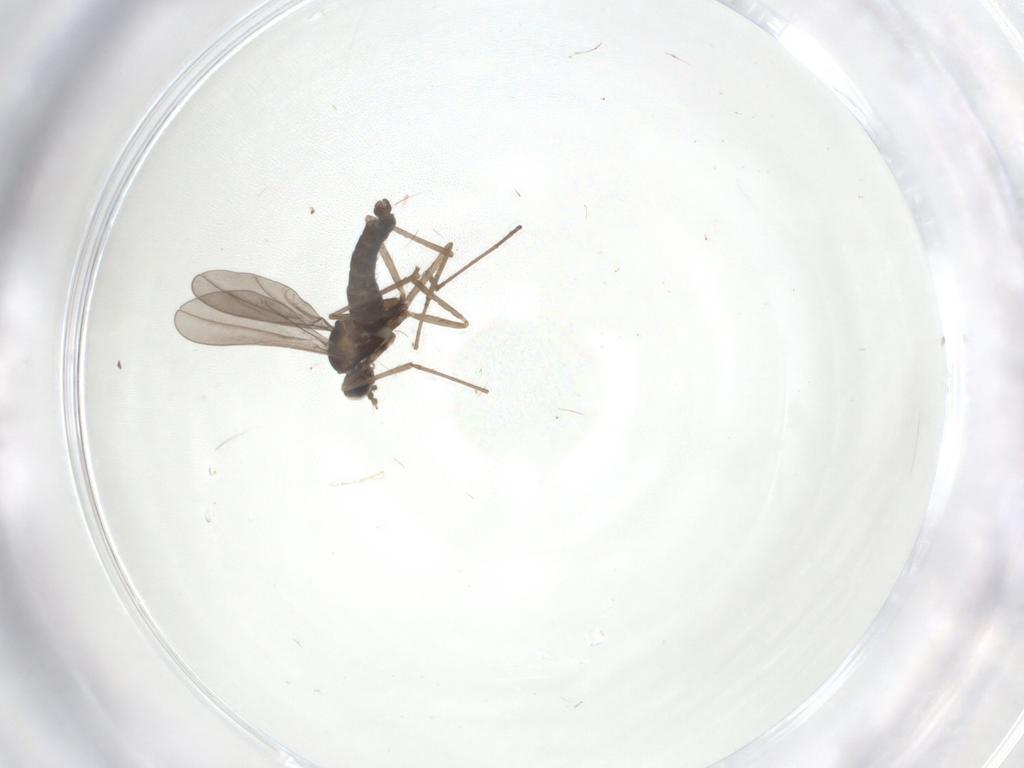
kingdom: Animalia
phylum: Arthropoda
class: Insecta
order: Diptera
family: Cecidomyiidae
